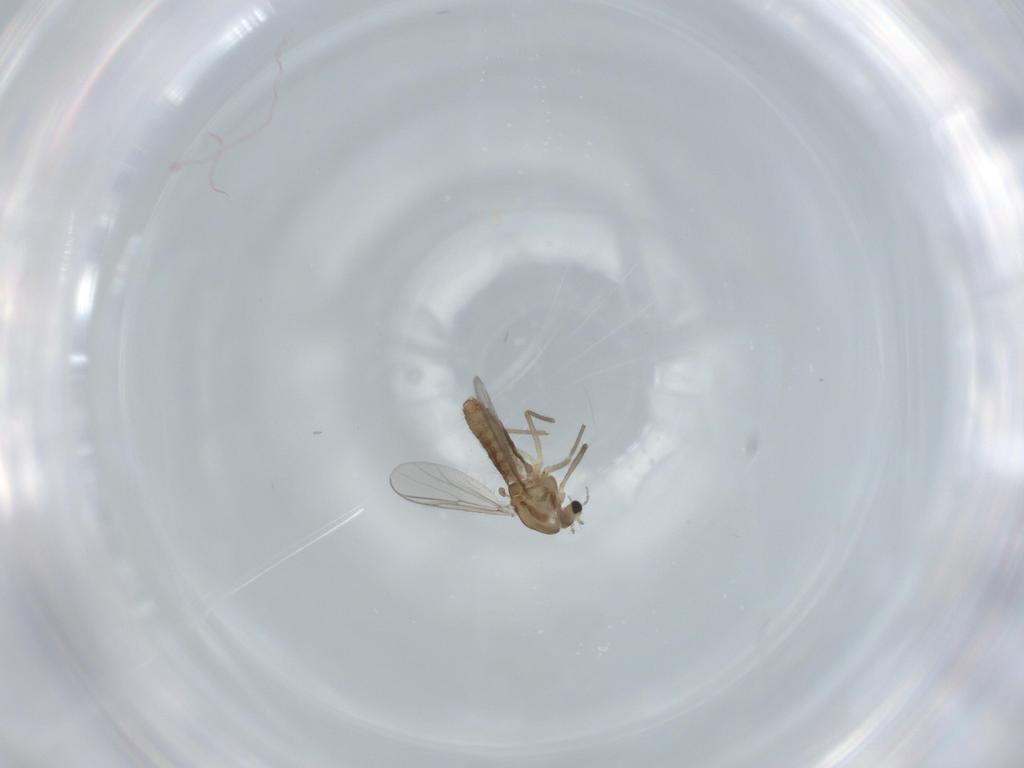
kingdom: Animalia
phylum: Arthropoda
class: Insecta
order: Diptera
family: Chironomidae
